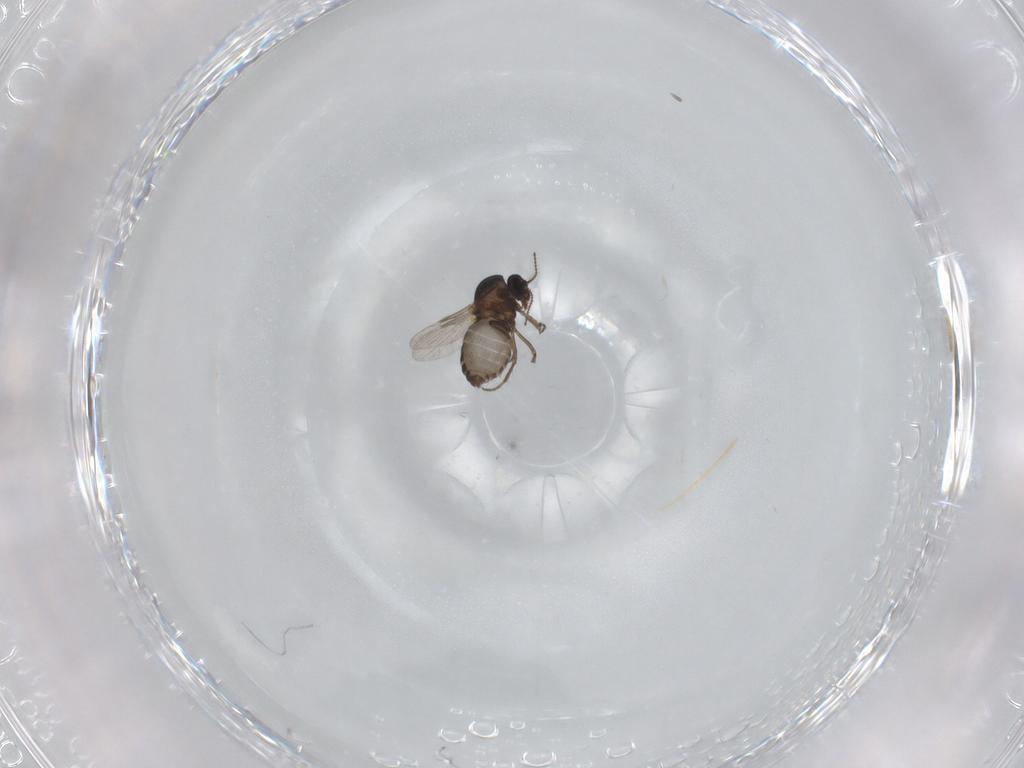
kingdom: Animalia
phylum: Arthropoda
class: Insecta
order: Diptera
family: Ceratopogonidae
